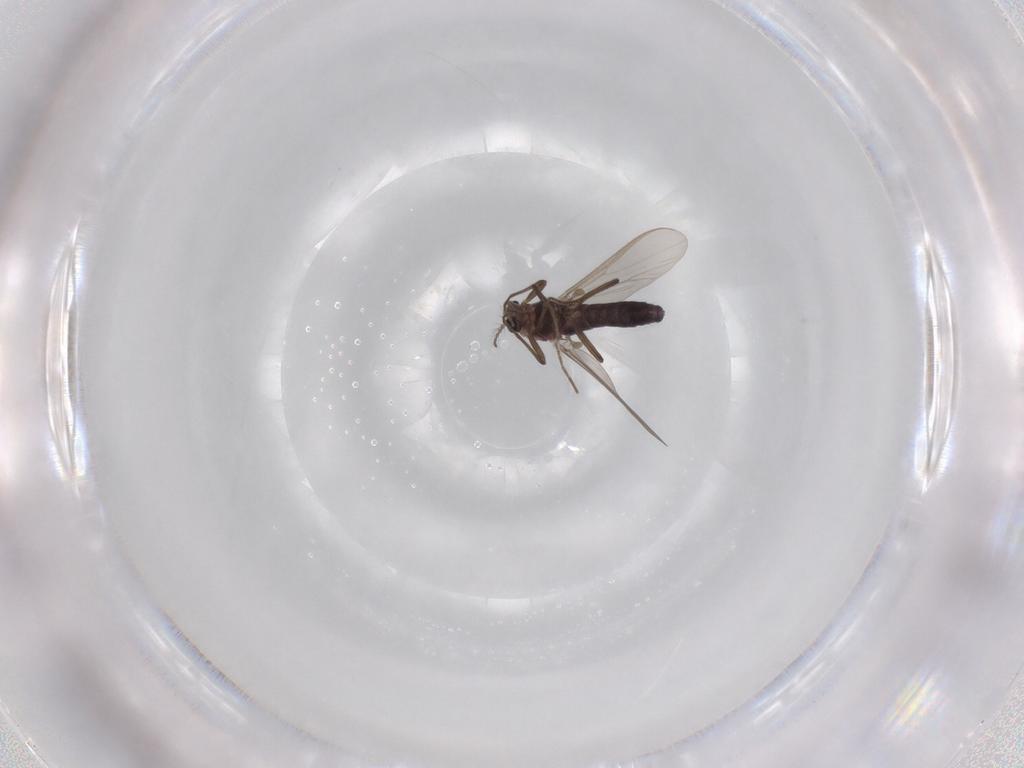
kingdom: Animalia
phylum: Arthropoda
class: Insecta
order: Diptera
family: Chironomidae
